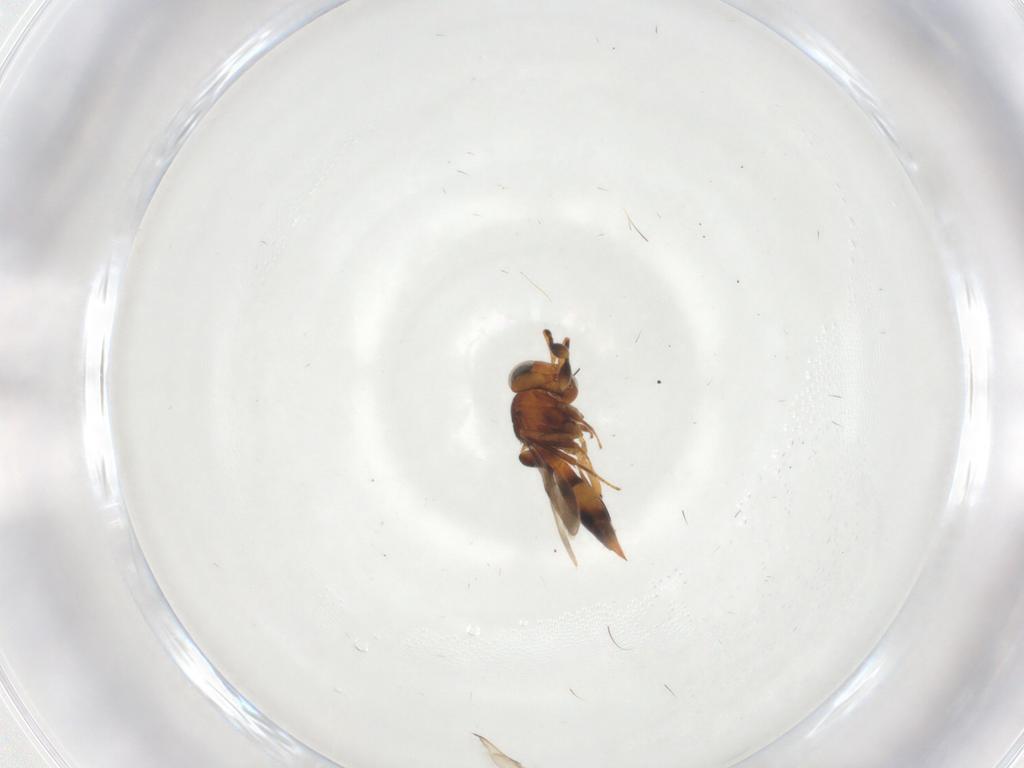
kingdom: Animalia
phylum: Arthropoda
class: Insecta
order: Hymenoptera
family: Scelionidae
